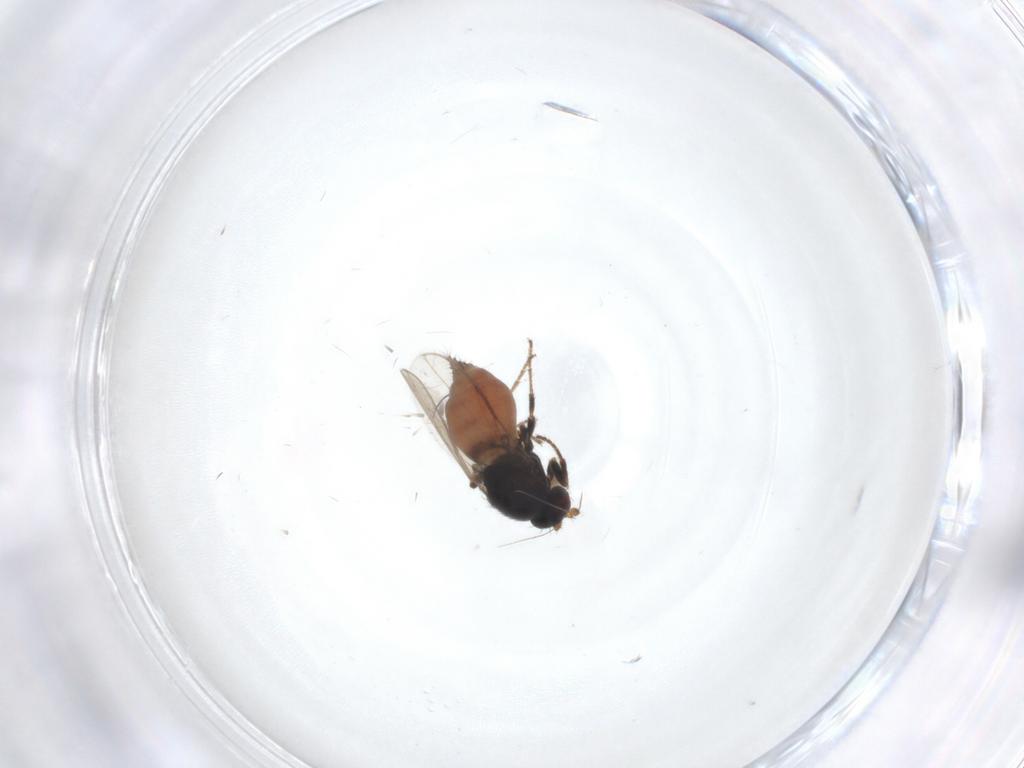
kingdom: Animalia
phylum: Arthropoda
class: Insecta
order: Diptera
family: Sphaeroceridae
